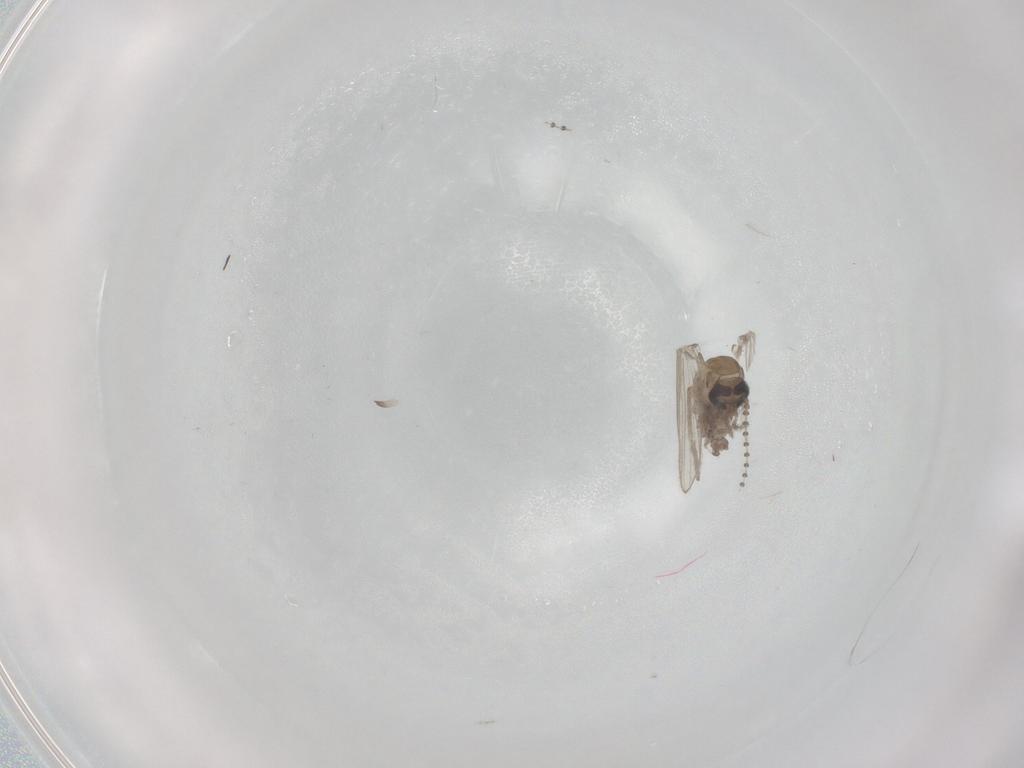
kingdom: Animalia
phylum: Arthropoda
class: Insecta
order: Diptera
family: Psychodidae
